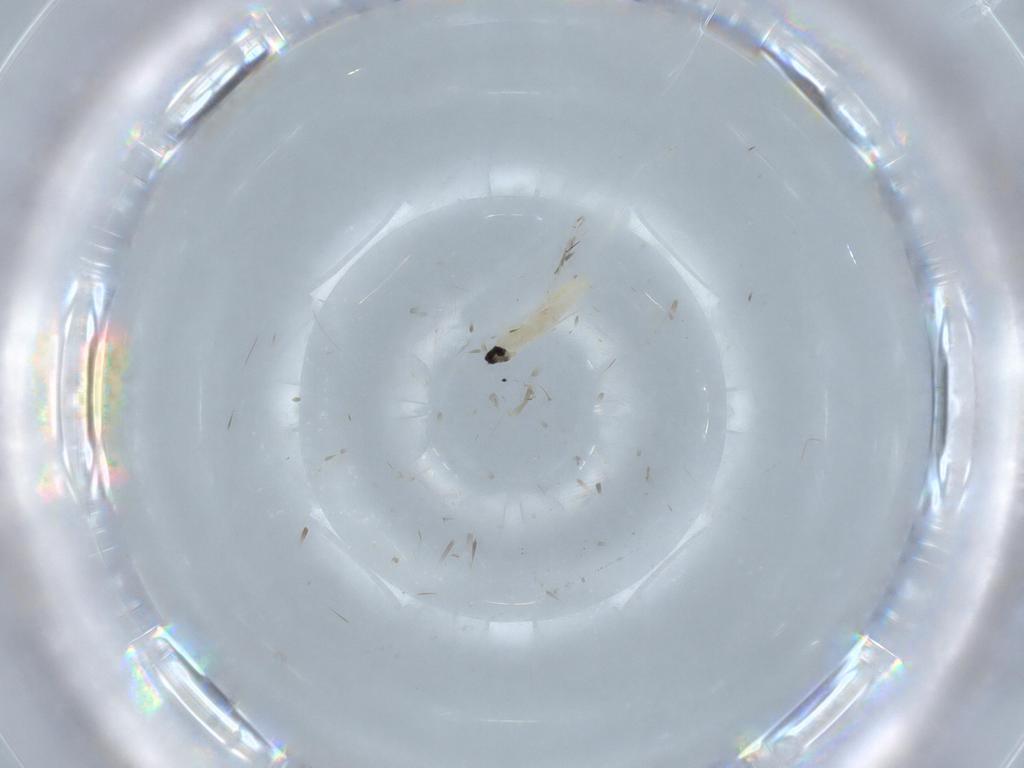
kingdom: Animalia
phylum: Arthropoda
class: Insecta
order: Diptera
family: Cecidomyiidae
